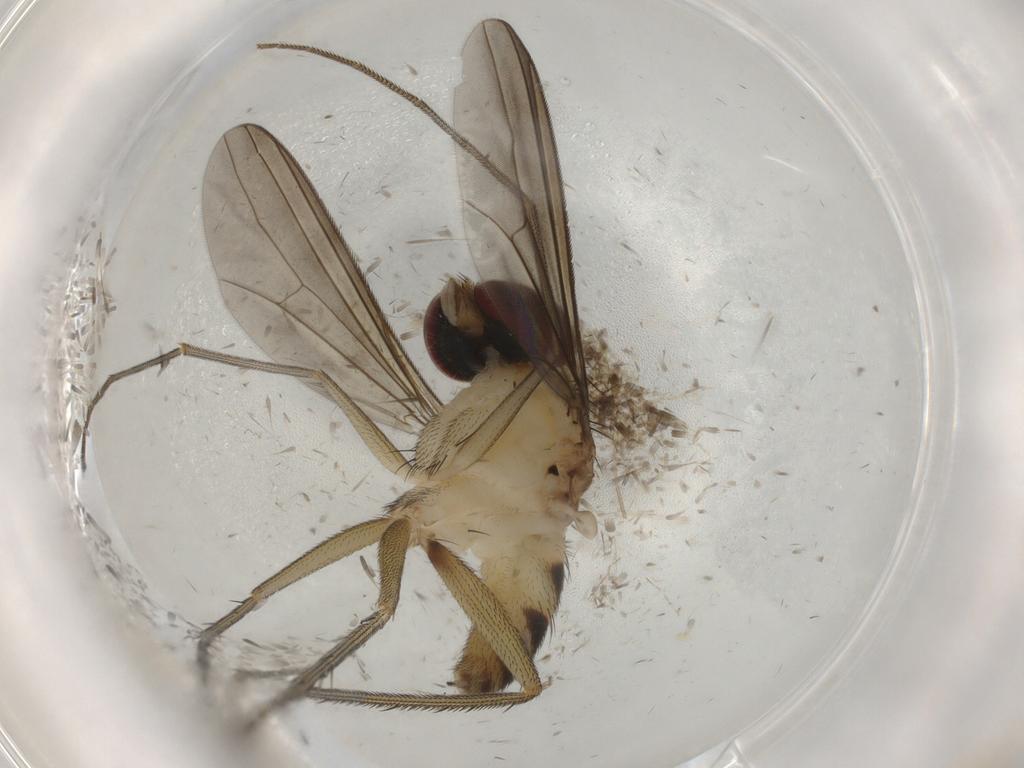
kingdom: Animalia
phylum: Arthropoda
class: Insecta
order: Diptera
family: Dolichopodidae
